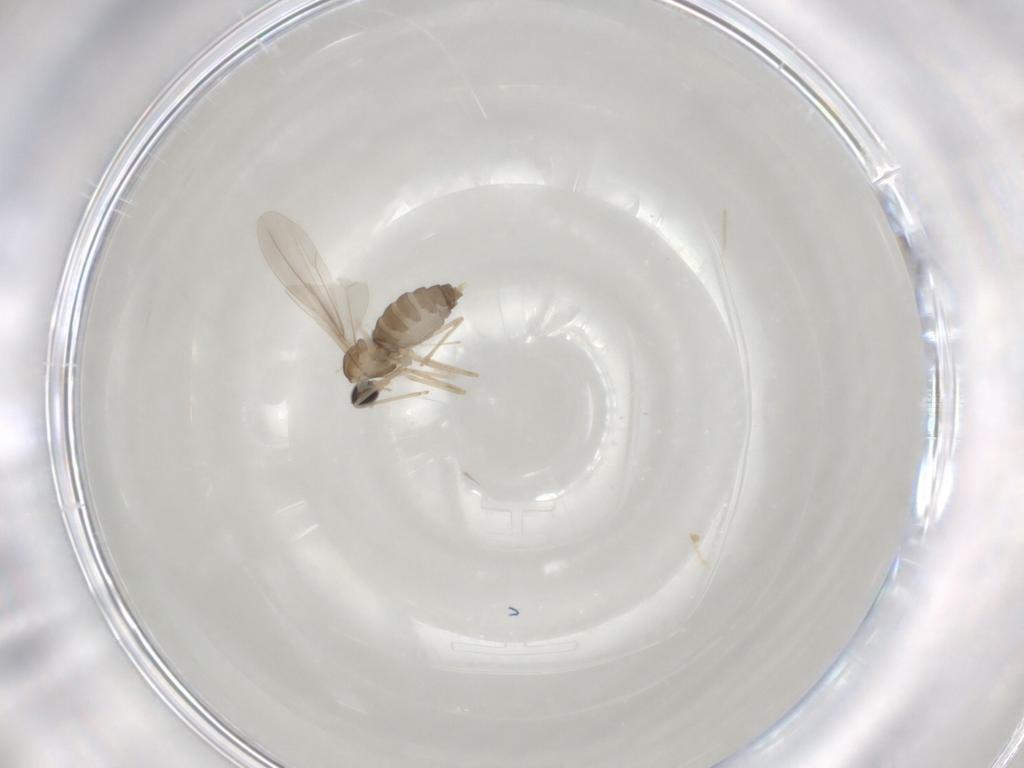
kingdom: Animalia
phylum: Arthropoda
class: Insecta
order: Diptera
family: Cecidomyiidae
